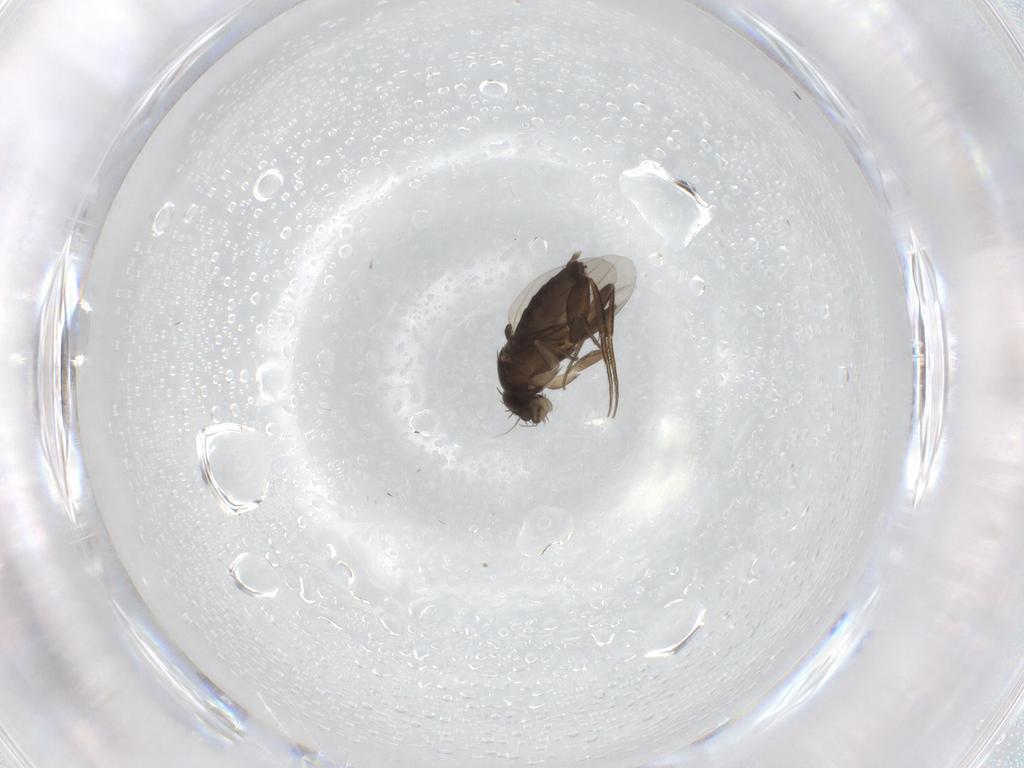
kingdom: Animalia
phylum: Arthropoda
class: Insecta
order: Diptera
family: Phoridae
